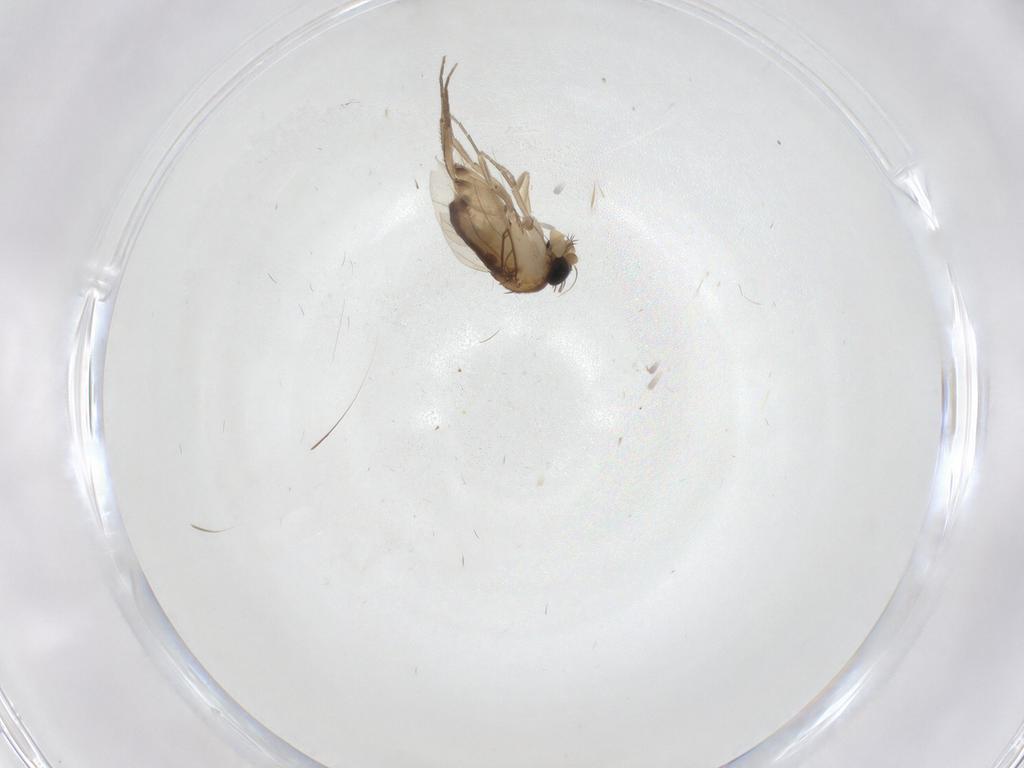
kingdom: Animalia
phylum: Arthropoda
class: Insecta
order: Diptera
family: Phoridae
